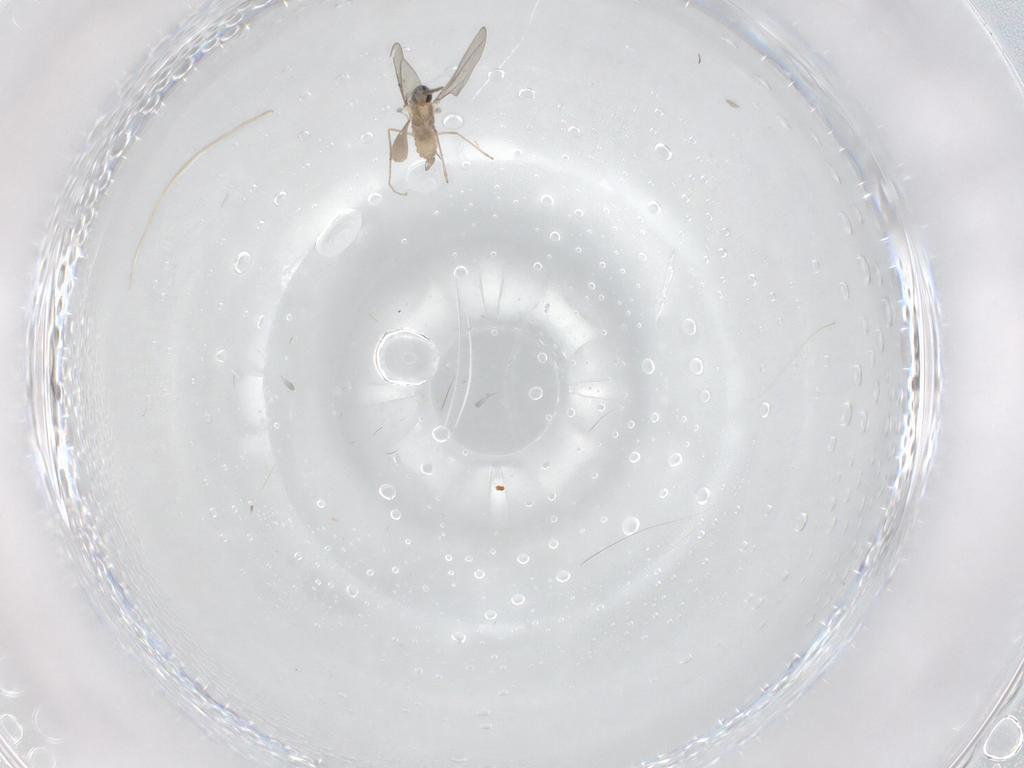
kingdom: Animalia
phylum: Arthropoda
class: Insecta
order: Diptera
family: Cecidomyiidae
